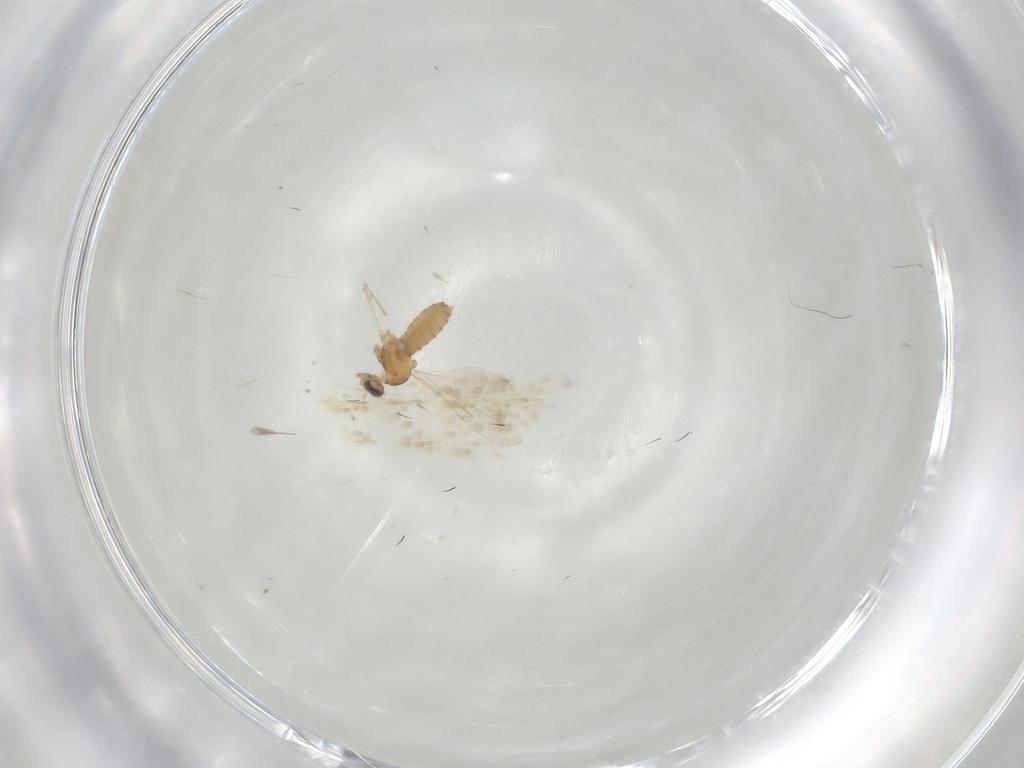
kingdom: Animalia
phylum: Arthropoda
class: Insecta
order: Diptera
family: Cecidomyiidae
